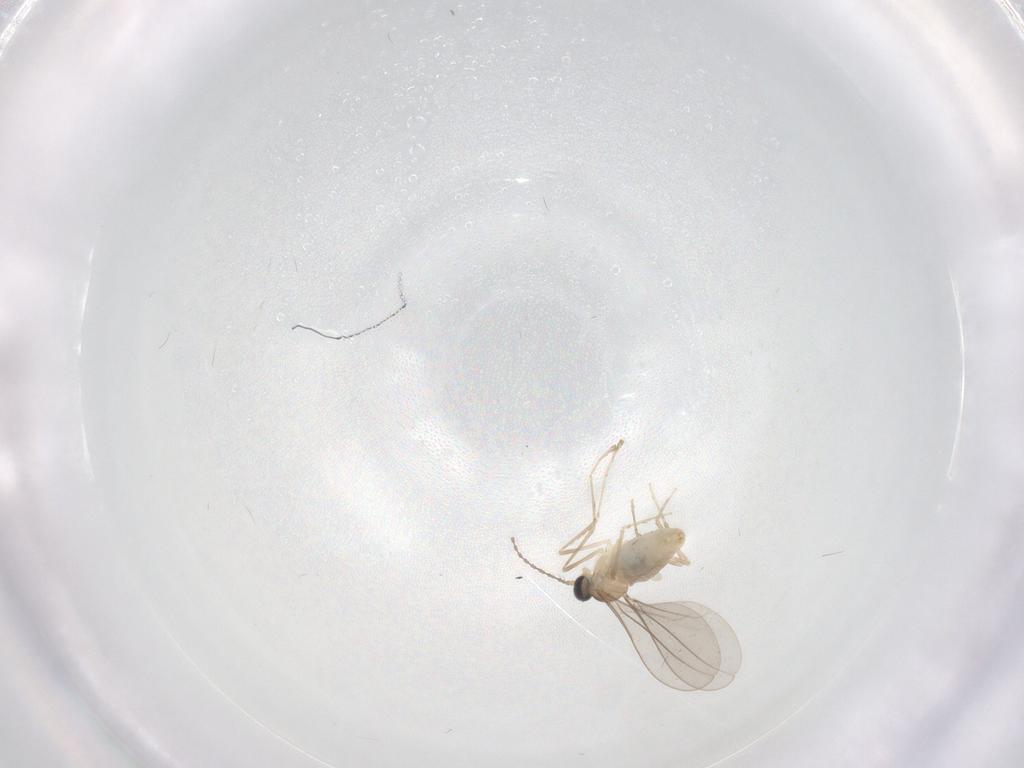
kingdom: Animalia
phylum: Arthropoda
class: Insecta
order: Diptera
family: Cecidomyiidae
